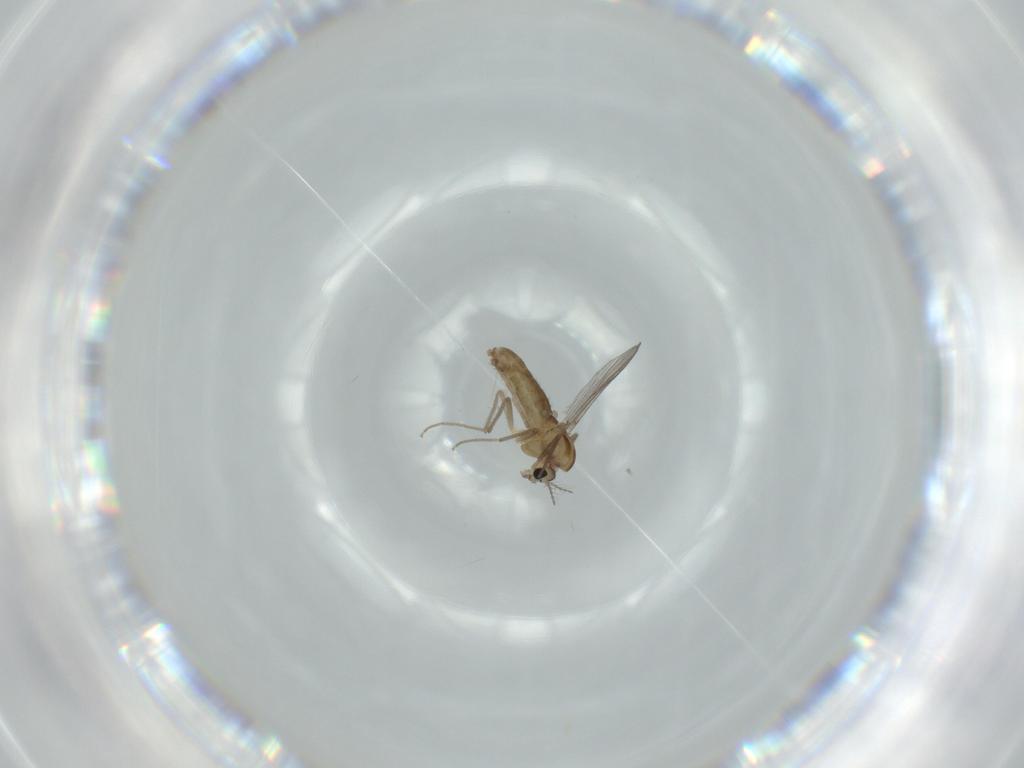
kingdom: Animalia
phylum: Arthropoda
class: Insecta
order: Diptera
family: Chironomidae
